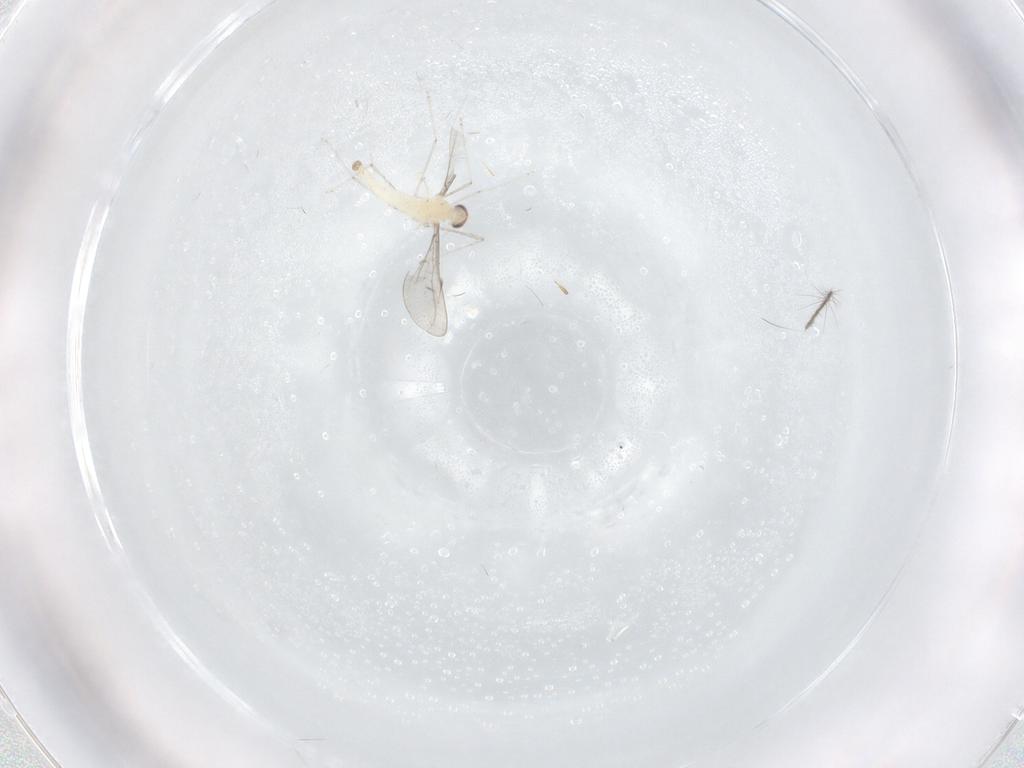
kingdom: Animalia
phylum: Arthropoda
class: Insecta
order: Diptera
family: Cecidomyiidae
